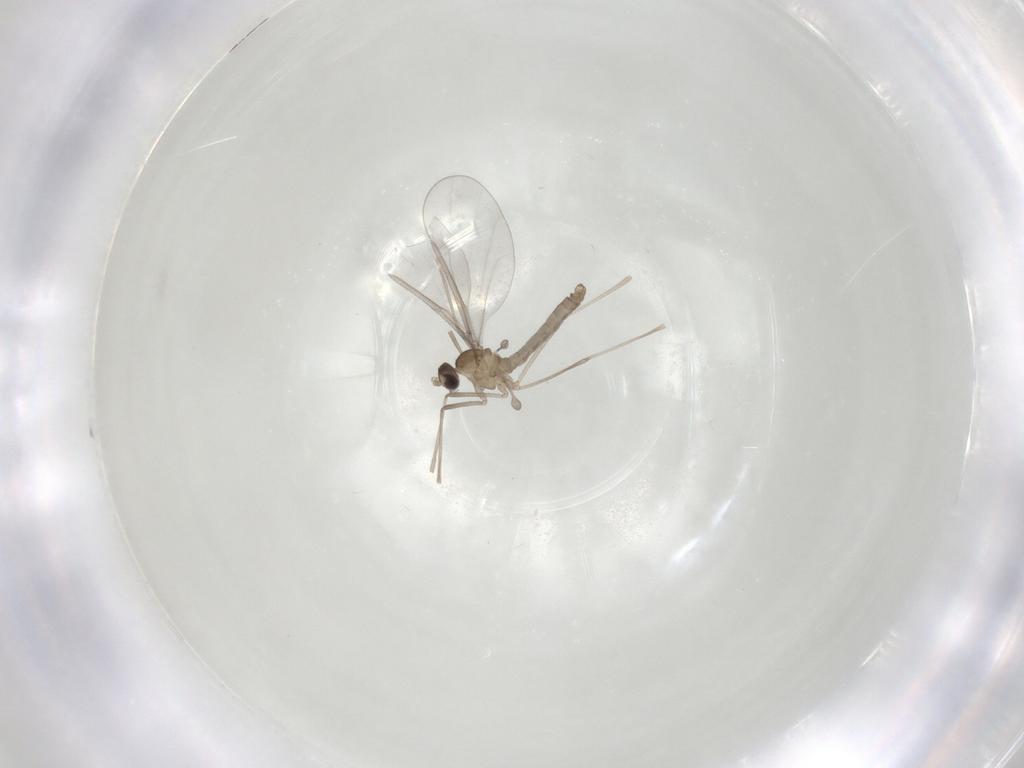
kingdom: Animalia
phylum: Arthropoda
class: Insecta
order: Diptera
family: Cecidomyiidae
